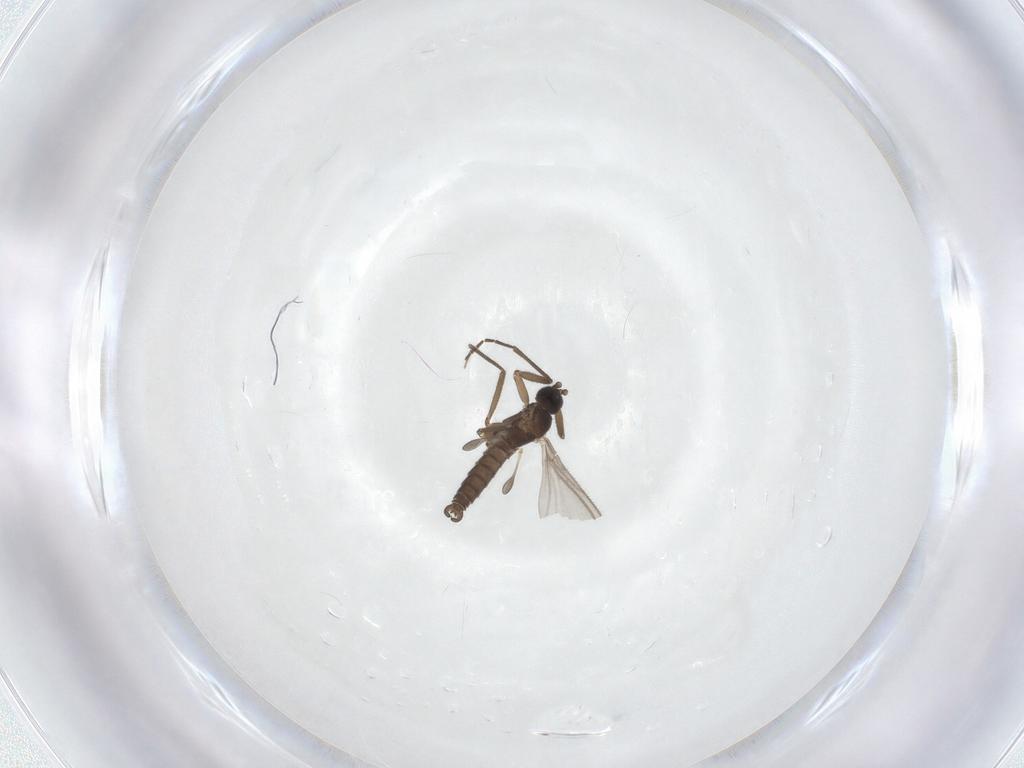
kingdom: Animalia
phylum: Arthropoda
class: Insecta
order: Diptera
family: Sciaridae
